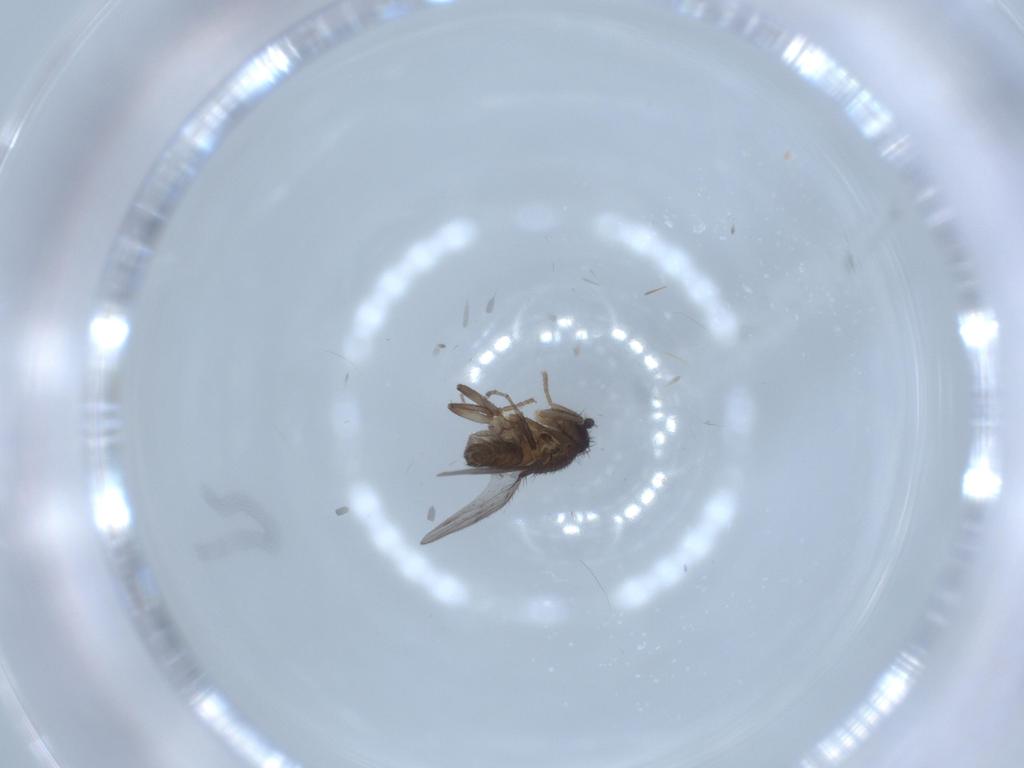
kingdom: Animalia
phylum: Arthropoda
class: Insecta
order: Diptera
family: Sphaeroceridae
